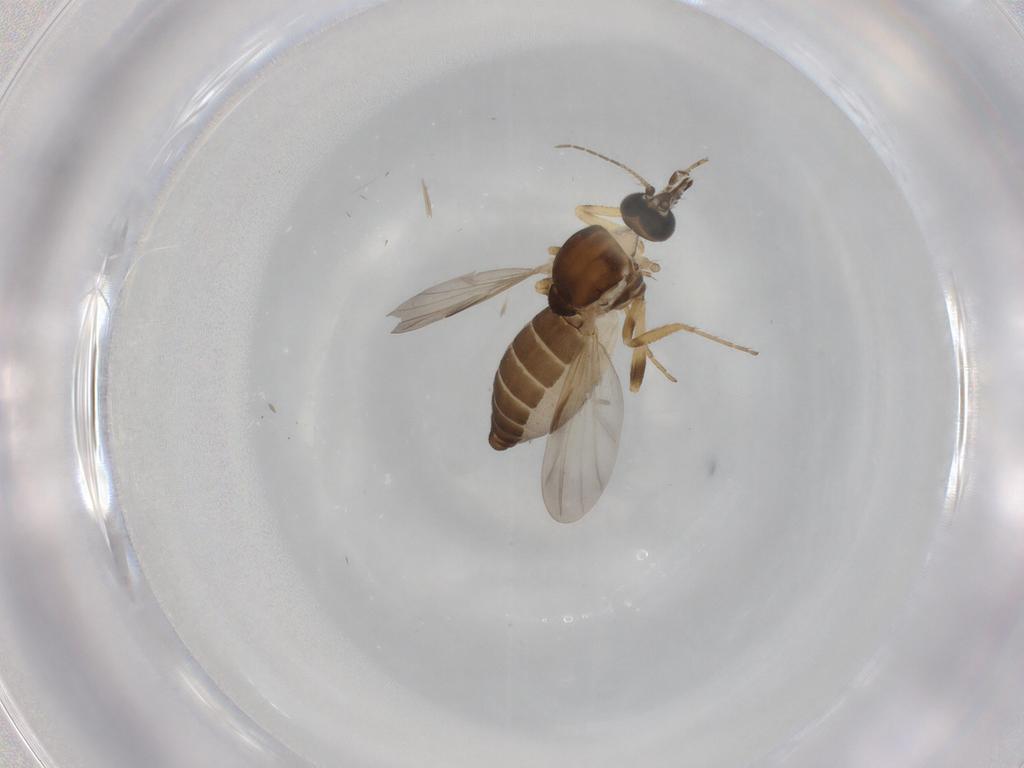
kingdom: Animalia
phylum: Arthropoda
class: Insecta
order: Diptera
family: Ceratopogonidae
